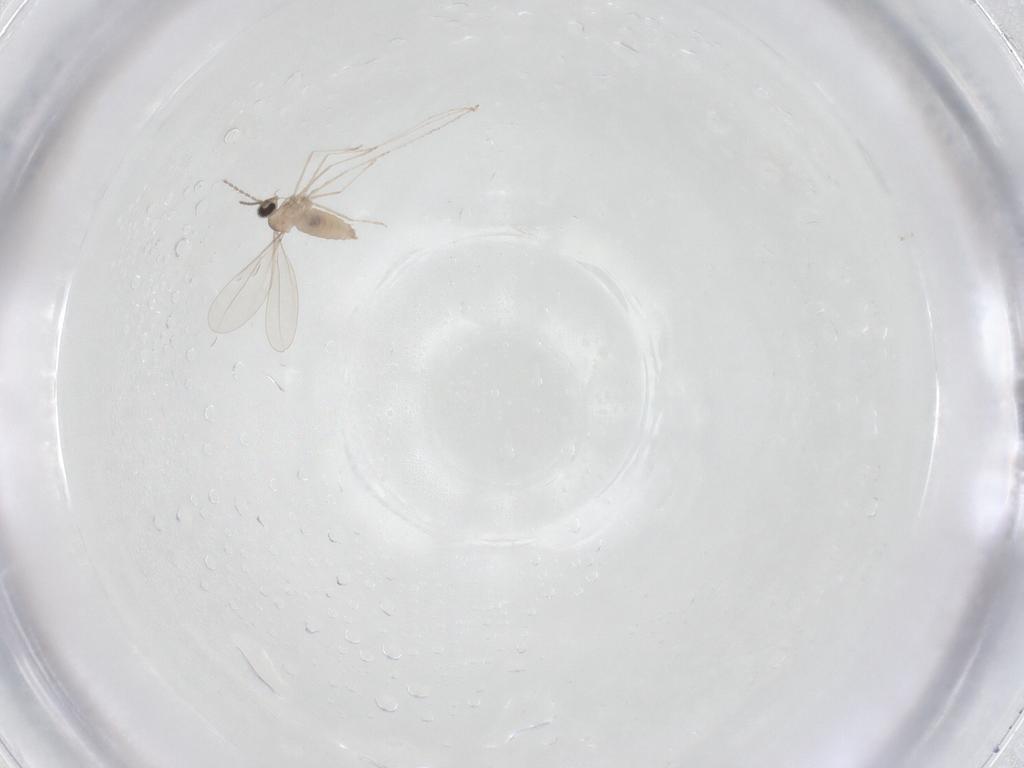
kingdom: Animalia
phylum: Arthropoda
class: Insecta
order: Diptera
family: Cecidomyiidae
